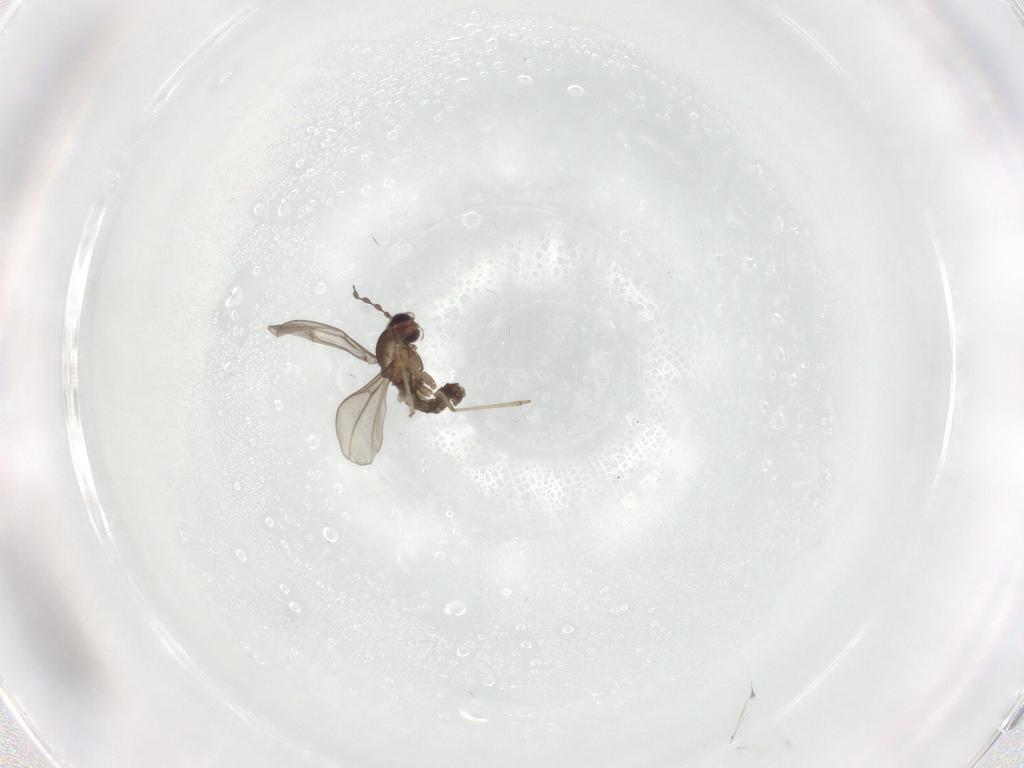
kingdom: Animalia
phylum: Arthropoda
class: Insecta
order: Diptera
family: Cecidomyiidae
